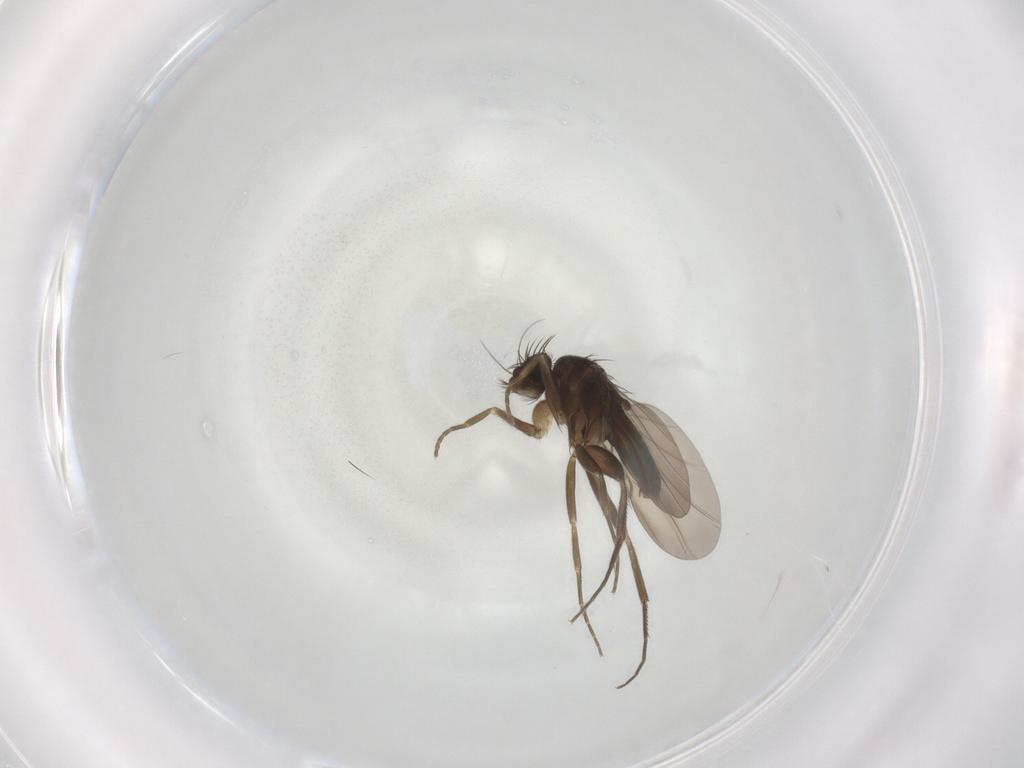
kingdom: Animalia
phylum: Arthropoda
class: Insecta
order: Diptera
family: Phoridae
